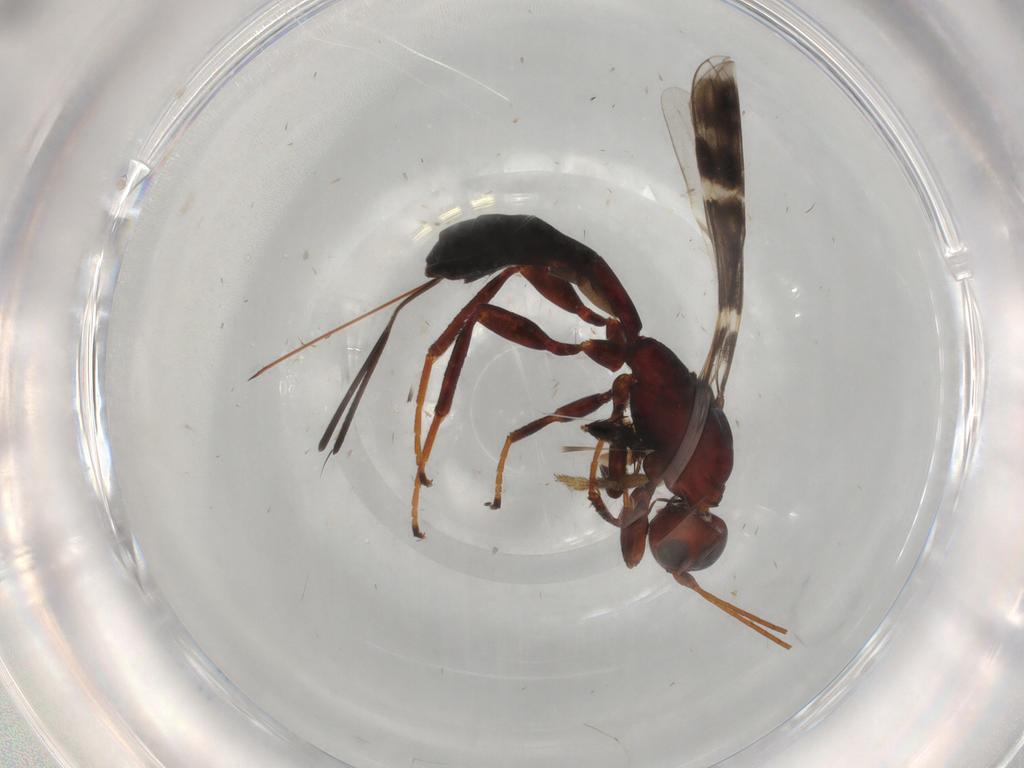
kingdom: Animalia
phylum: Arthropoda
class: Insecta
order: Hymenoptera
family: Braconidae
